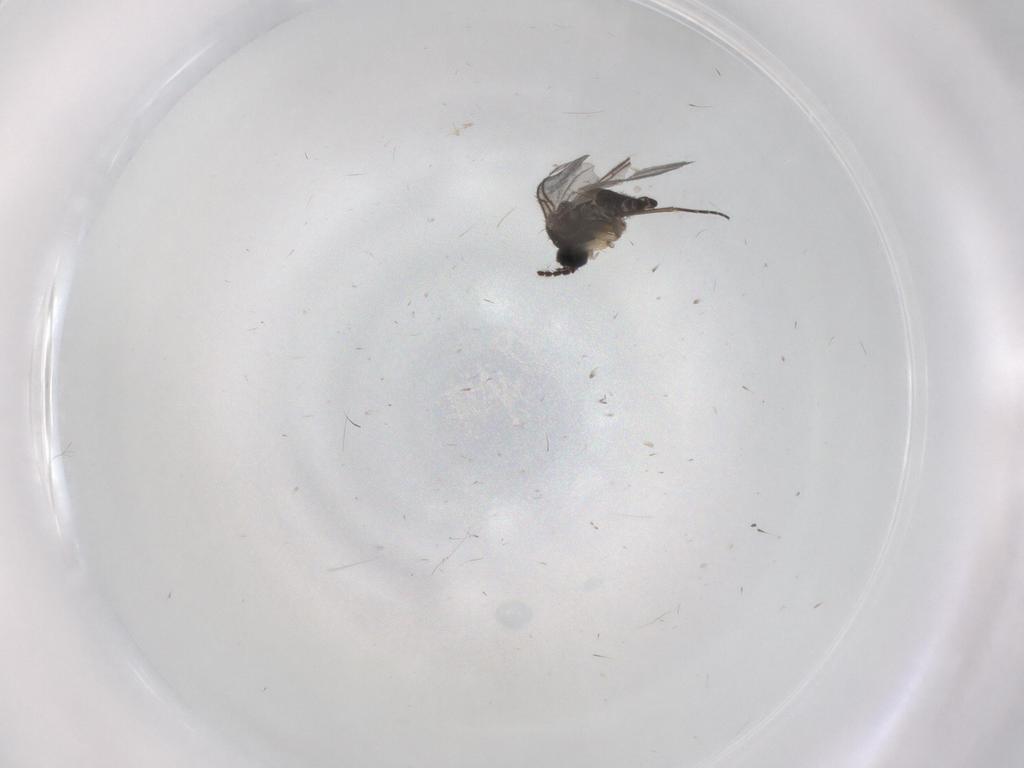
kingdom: Animalia
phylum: Arthropoda
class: Insecta
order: Diptera
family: Sciaridae
